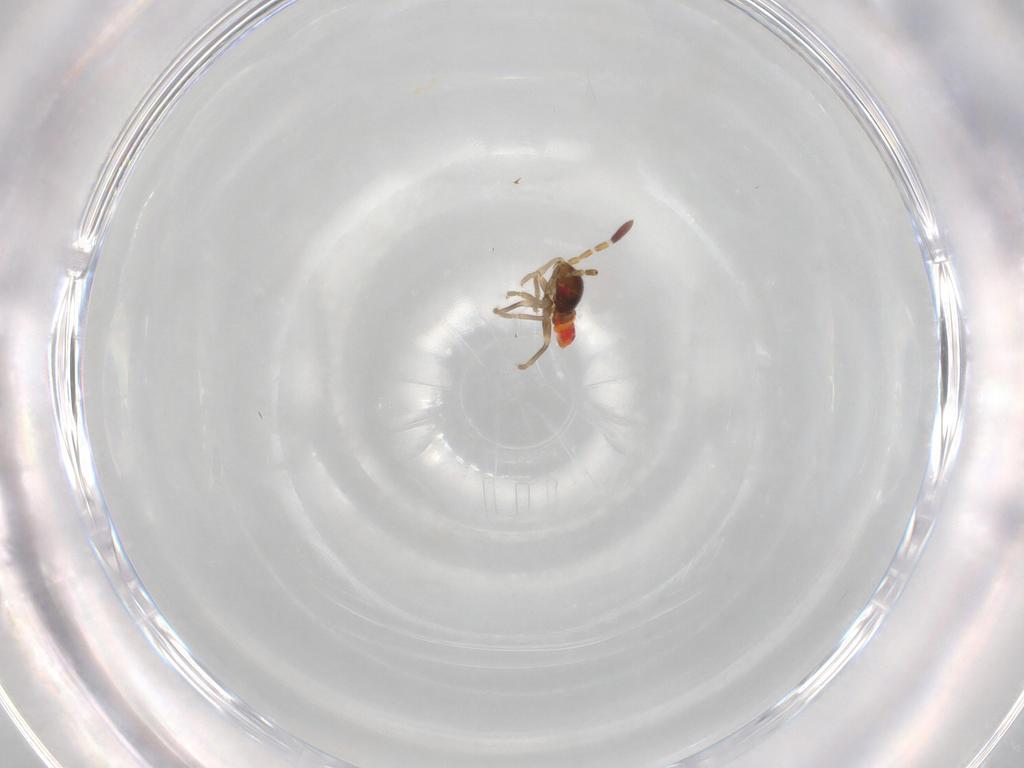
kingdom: Animalia
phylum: Arthropoda
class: Insecta
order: Hemiptera
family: Rhyparochromidae
